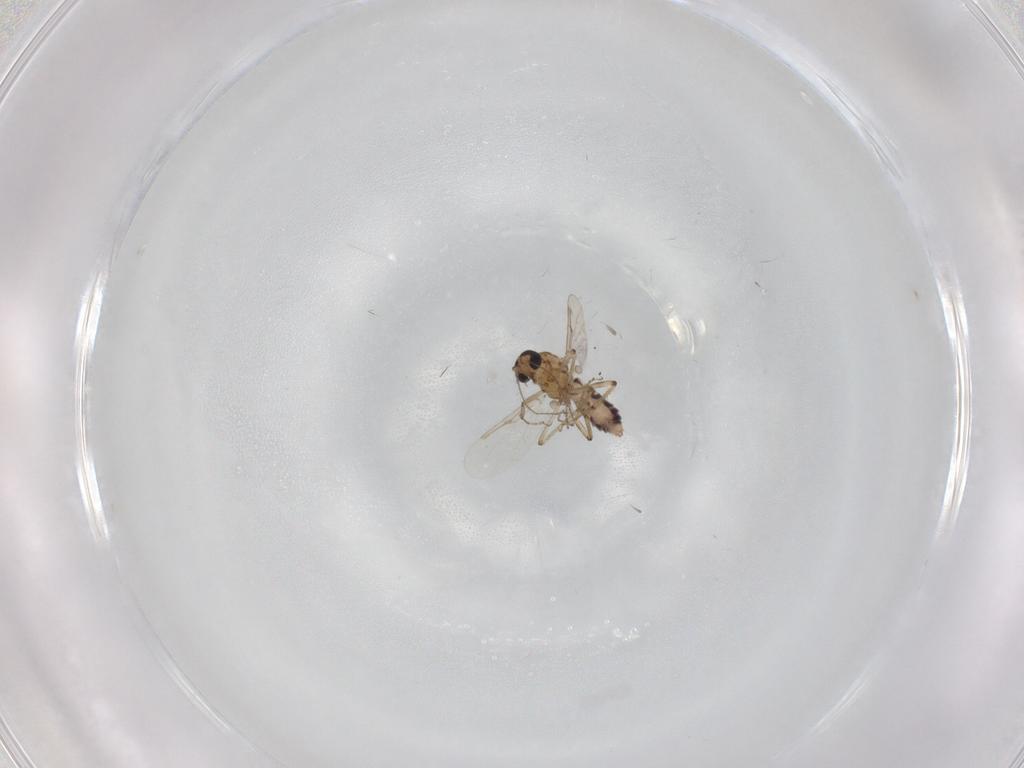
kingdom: Animalia
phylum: Arthropoda
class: Insecta
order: Diptera
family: Ceratopogonidae
